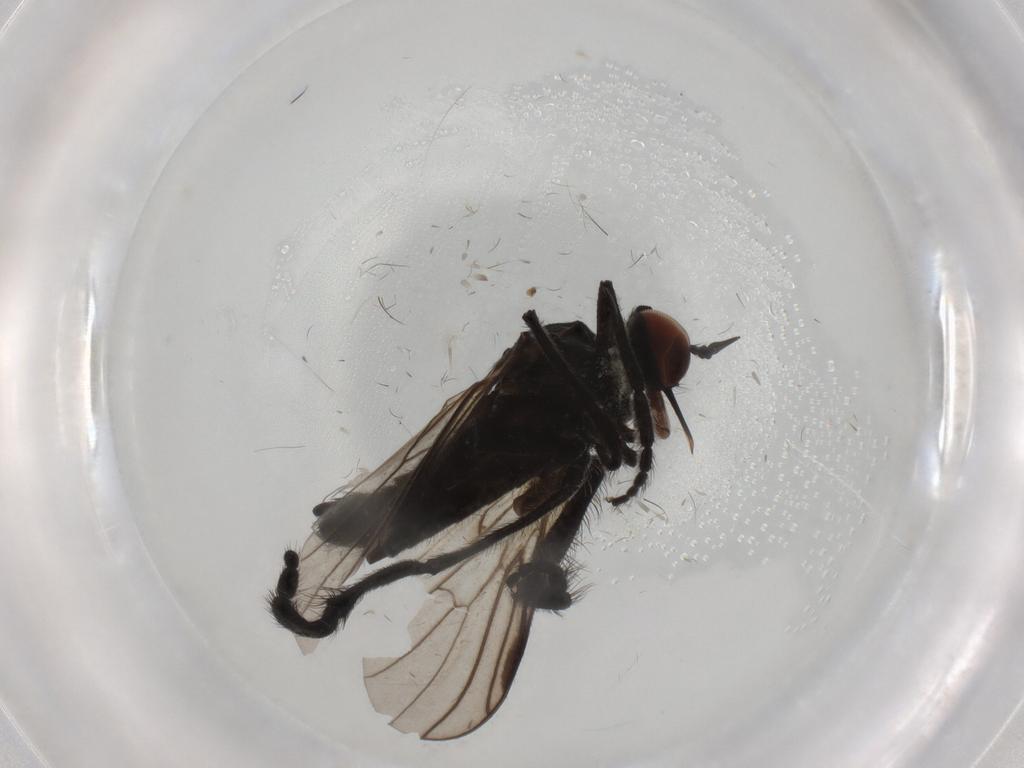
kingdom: Animalia
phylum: Arthropoda
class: Insecta
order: Diptera
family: Empididae
